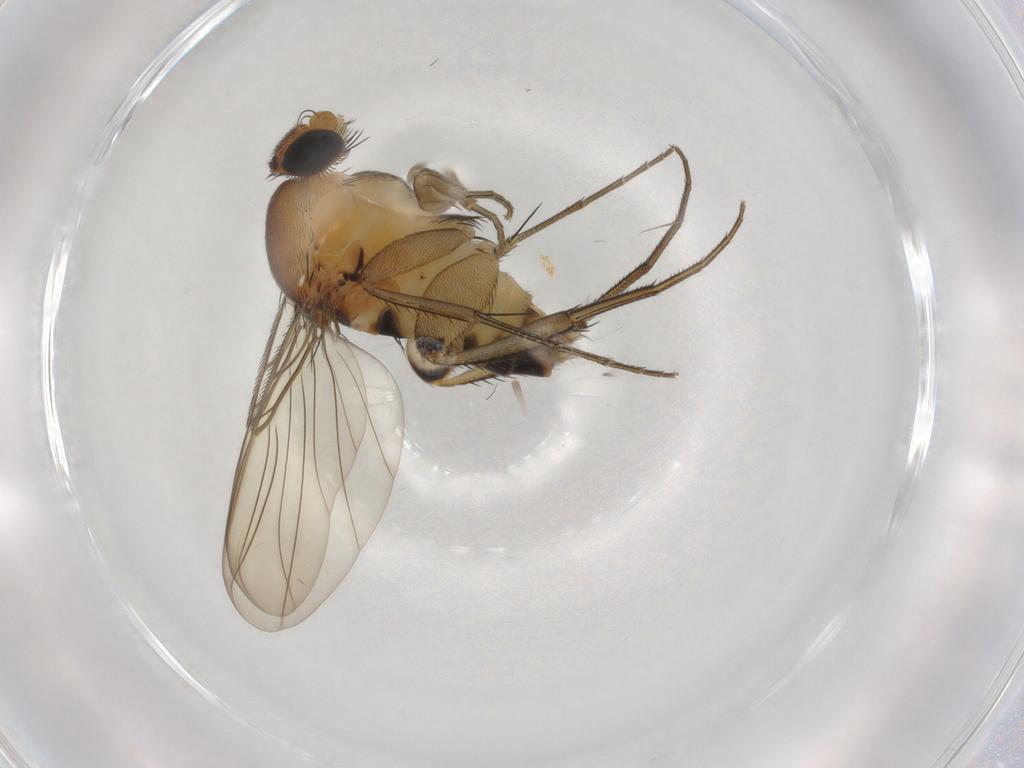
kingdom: Animalia
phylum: Arthropoda
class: Insecta
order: Diptera
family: Phoridae
